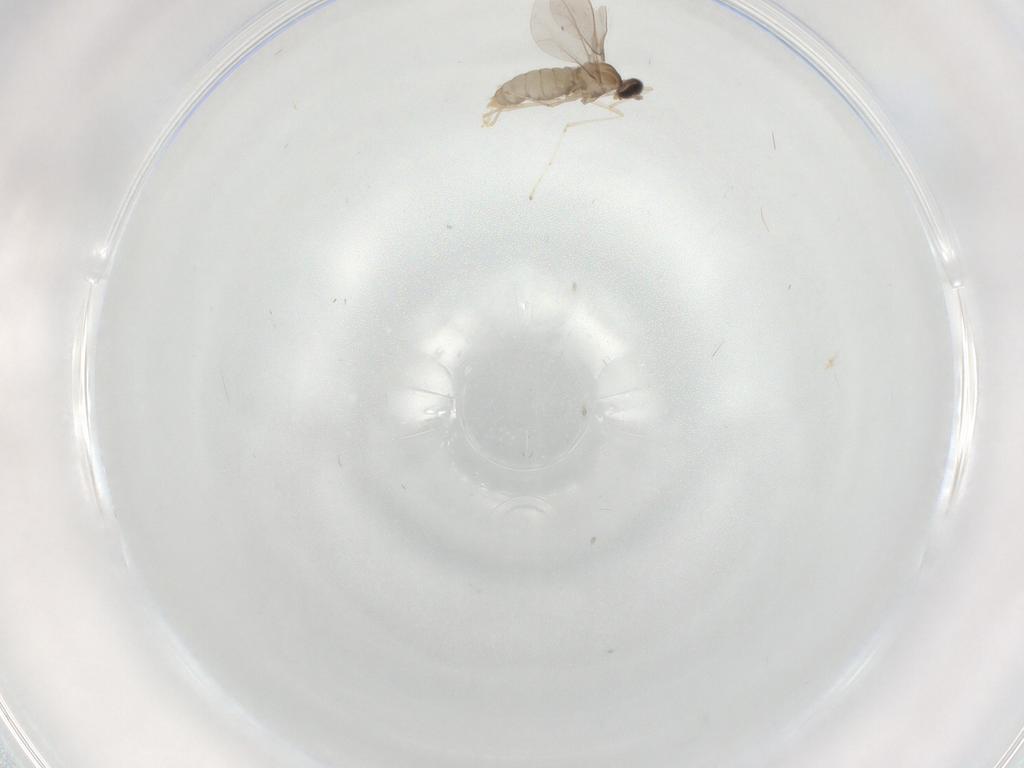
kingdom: Animalia
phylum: Arthropoda
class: Insecta
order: Diptera
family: Cecidomyiidae
